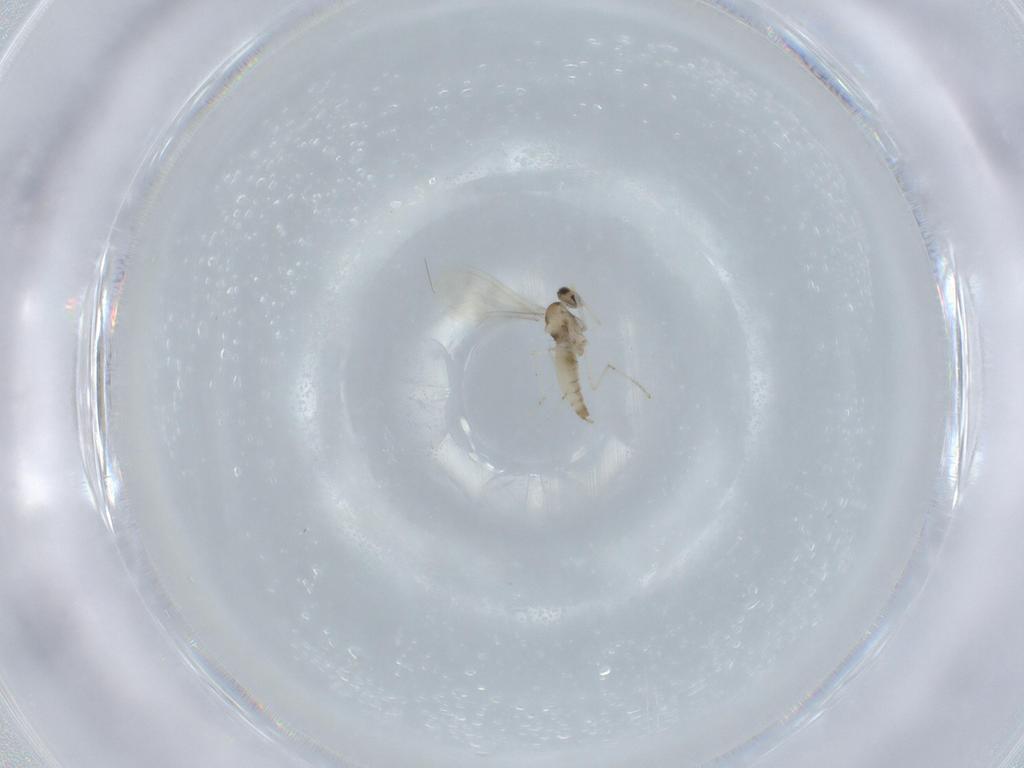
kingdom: Animalia
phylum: Arthropoda
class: Insecta
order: Diptera
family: Cecidomyiidae
